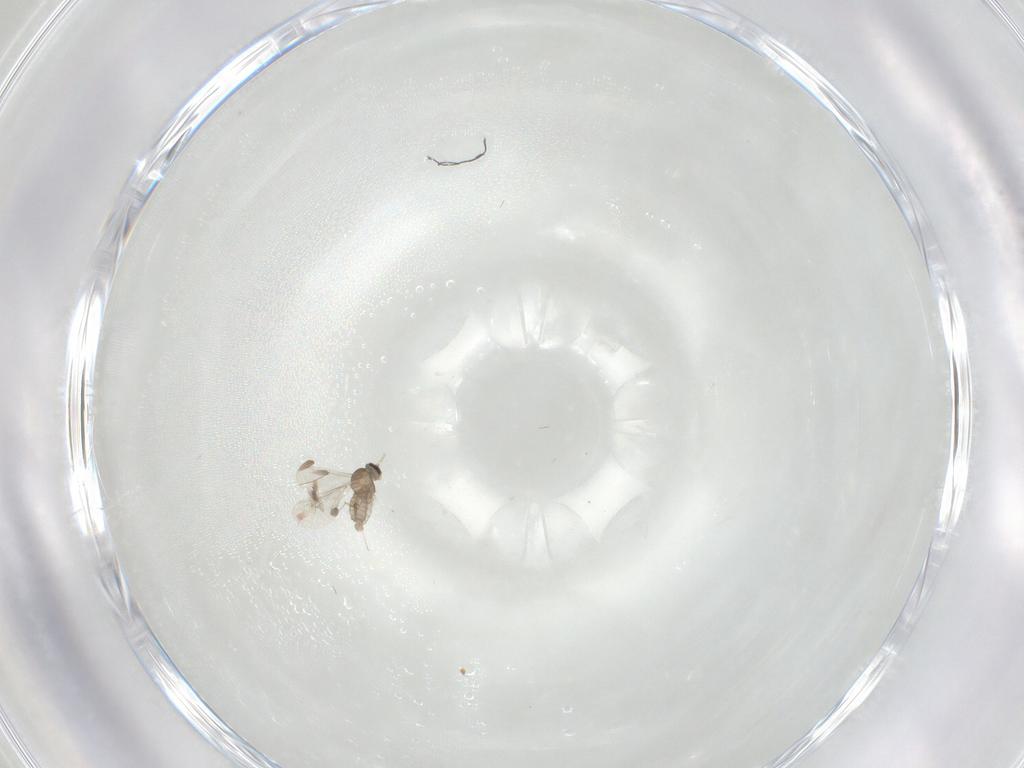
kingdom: Animalia
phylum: Arthropoda
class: Insecta
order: Diptera
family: Cecidomyiidae
